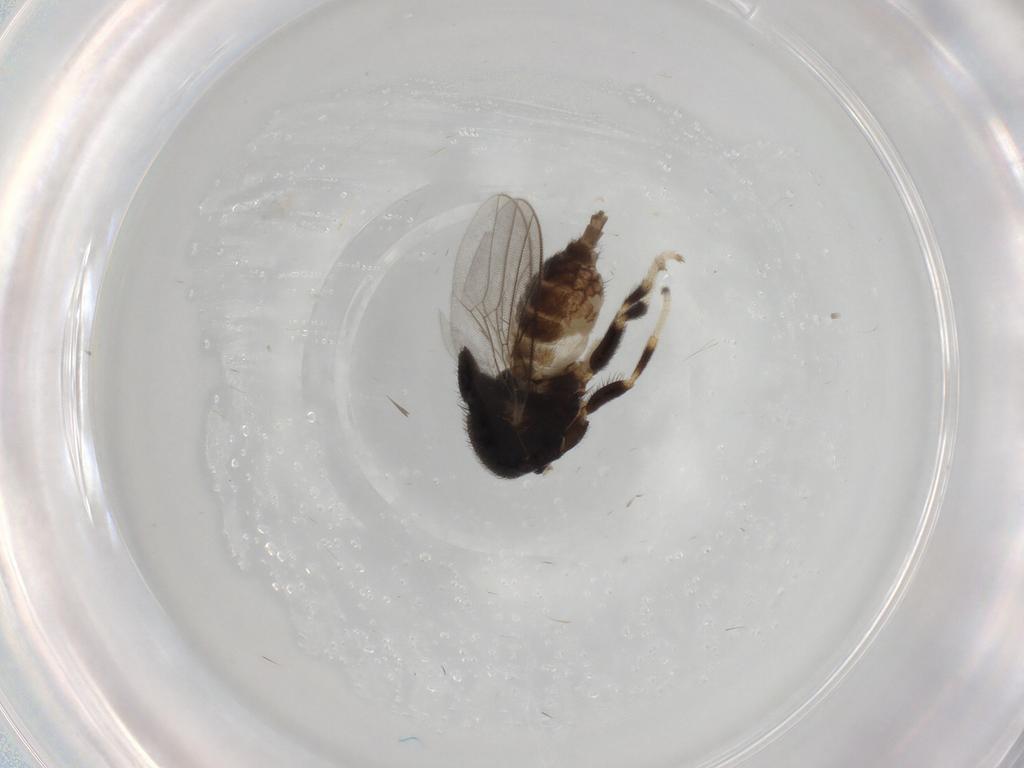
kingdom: Animalia
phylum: Arthropoda
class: Insecta
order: Diptera
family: Chloropidae
